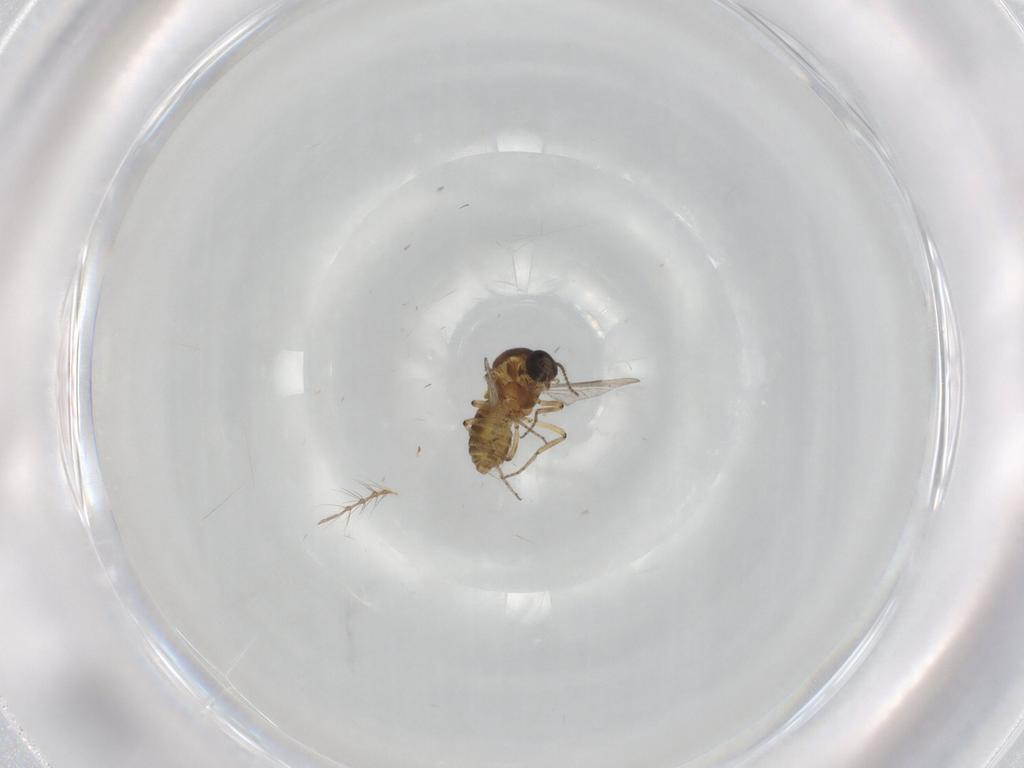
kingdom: Animalia
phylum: Arthropoda
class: Insecta
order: Diptera
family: Ceratopogonidae
